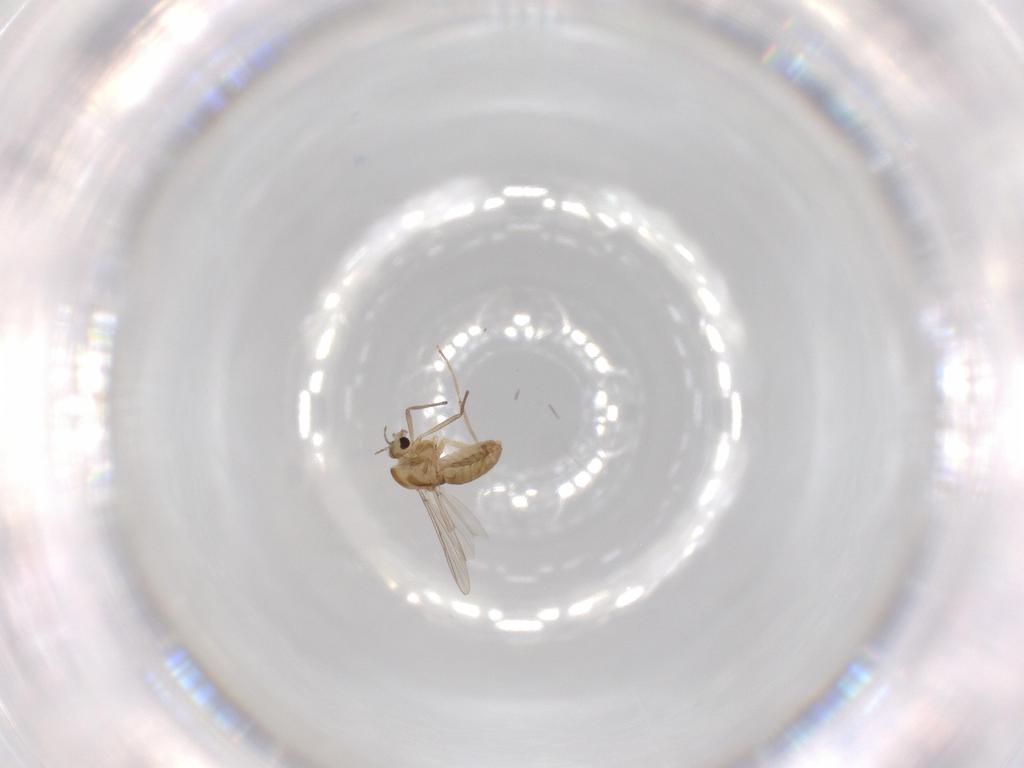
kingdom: Animalia
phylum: Arthropoda
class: Insecta
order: Diptera
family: Chironomidae
